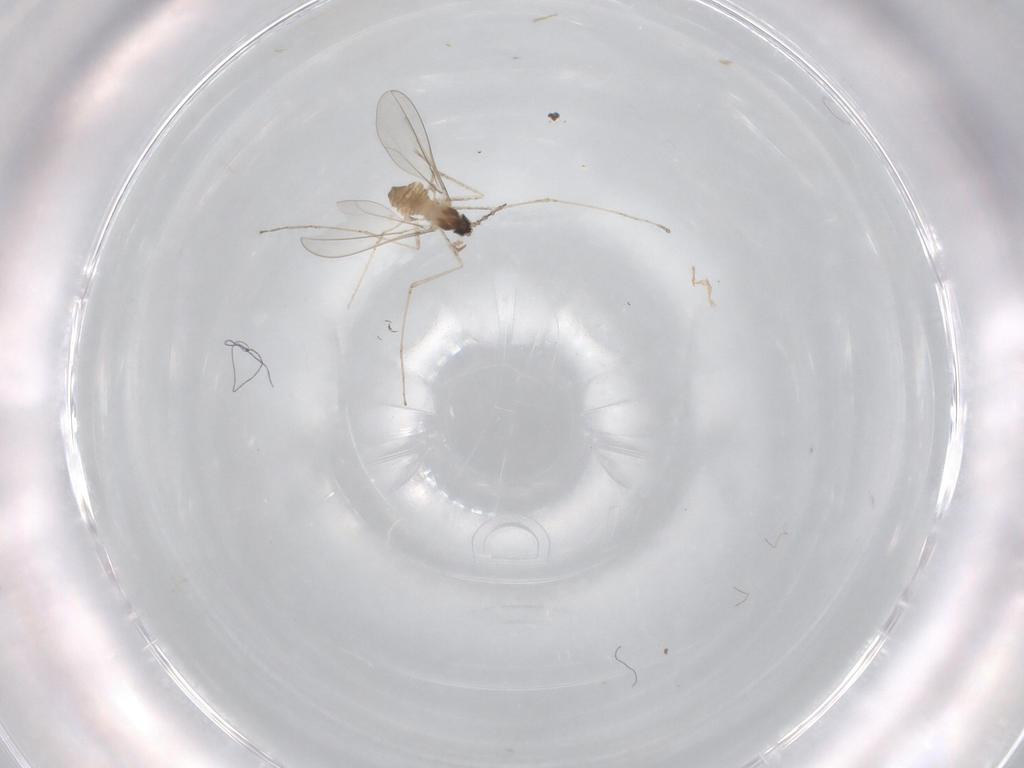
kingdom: Animalia
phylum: Arthropoda
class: Insecta
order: Diptera
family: Cecidomyiidae
